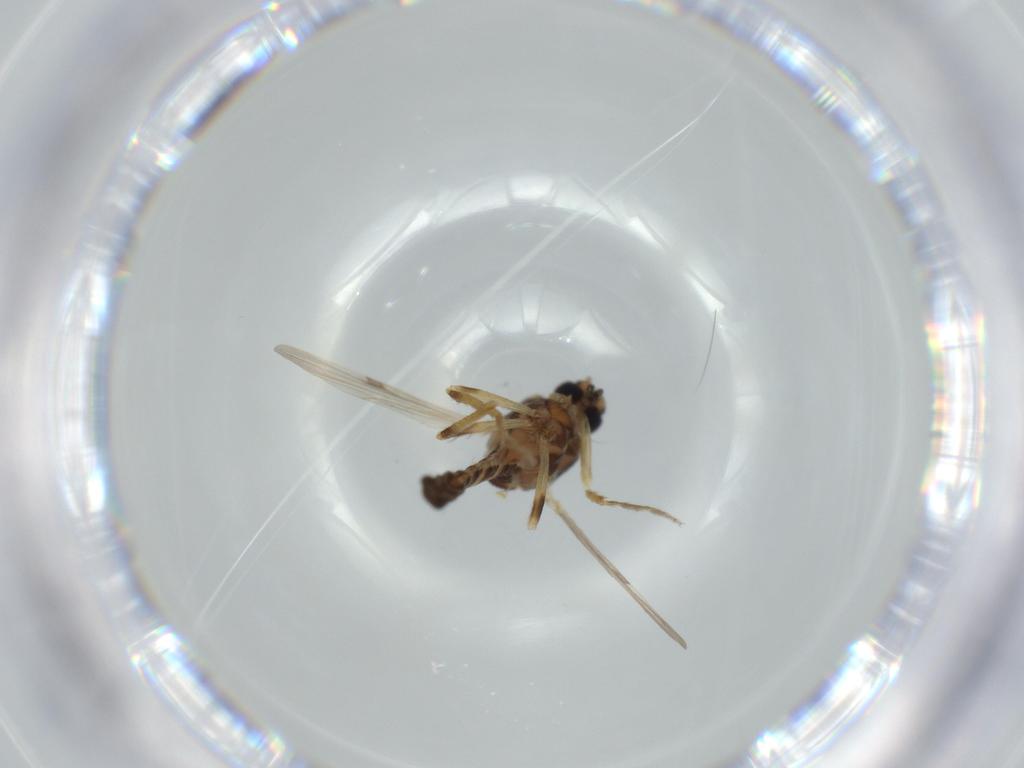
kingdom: Animalia
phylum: Arthropoda
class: Insecta
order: Diptera
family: Ceratopogonidae
